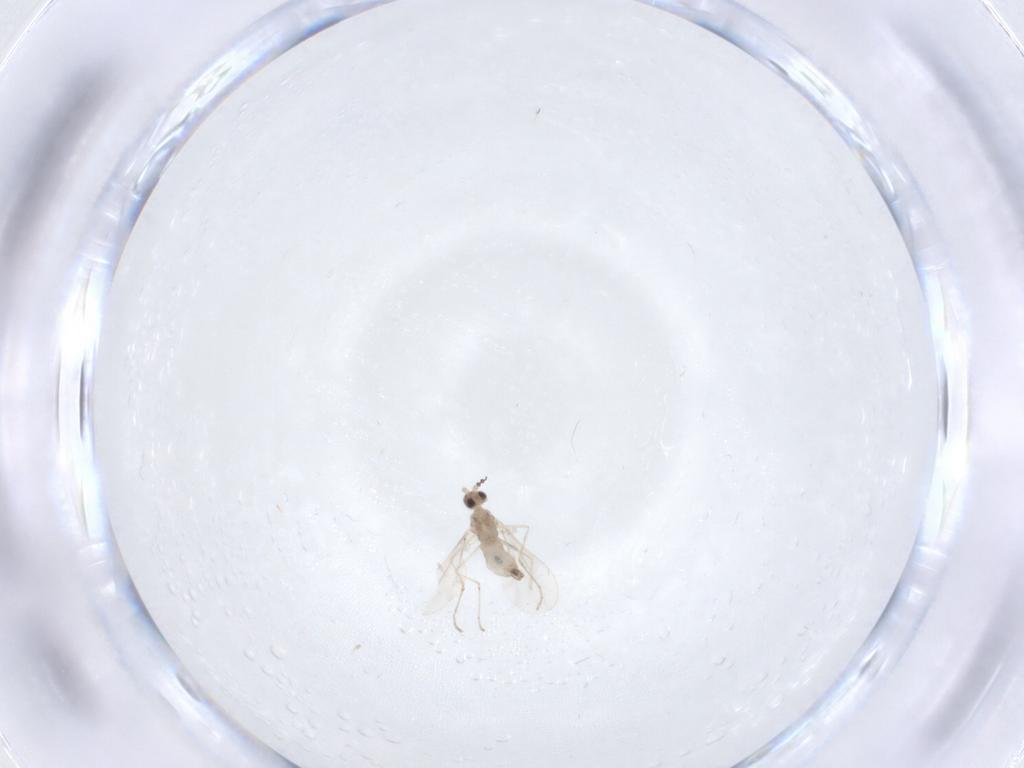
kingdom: Animalia
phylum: Arthropoda
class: Insecta
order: Diptera
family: Cecidomyiidae
